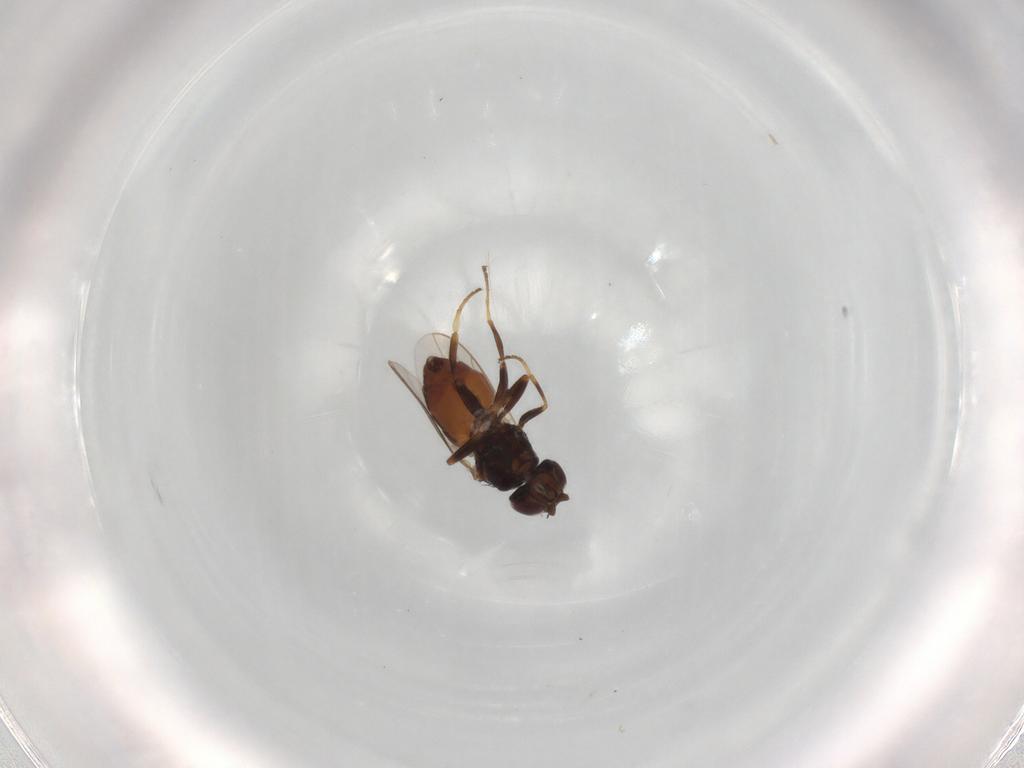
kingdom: Animalia
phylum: Arthropoda
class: Insecta
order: Diptera
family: Chloropidae
